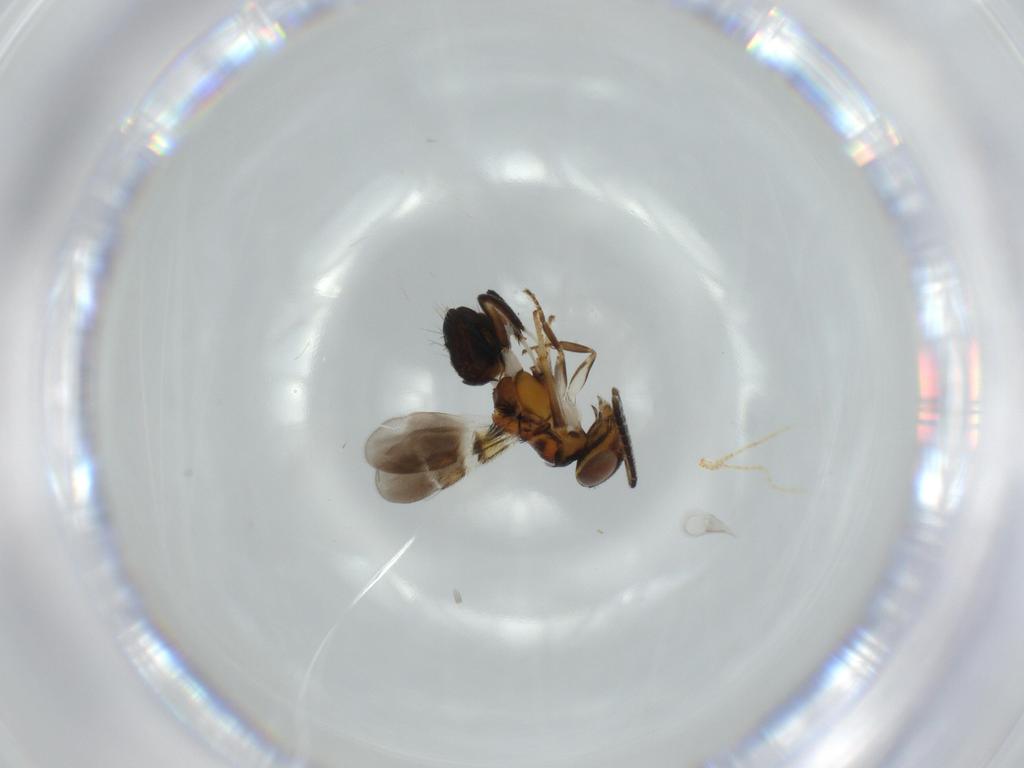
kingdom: Animalia
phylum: Arthropoda
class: Insecta
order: Hymenoptera
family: Encyrtidae
